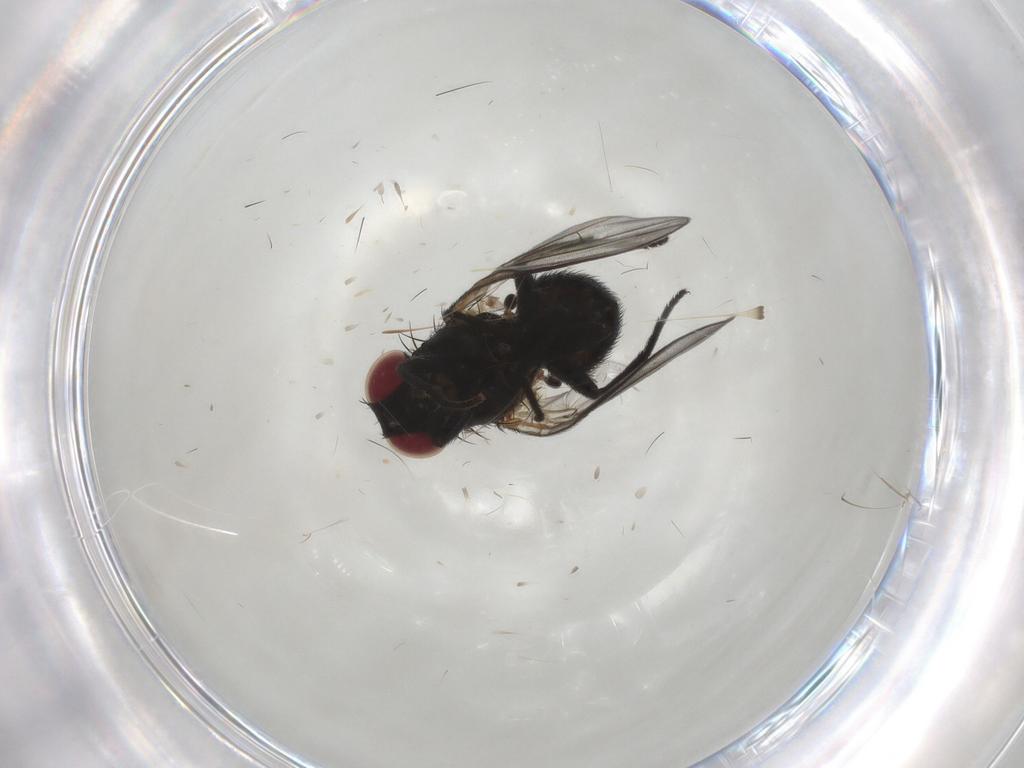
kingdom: Animalia
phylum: Arthropoda
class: Insecta
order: Diptera
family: Agromyzidae
